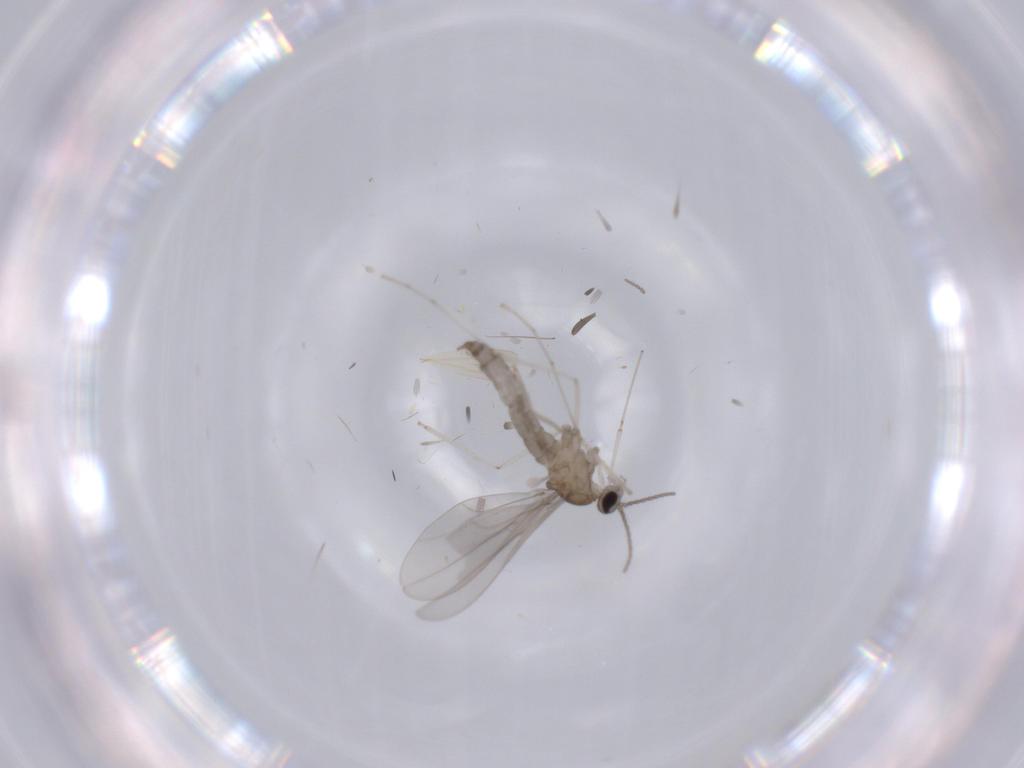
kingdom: Animalia
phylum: Arthropoda
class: Insecta
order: Diptera
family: Sciaridae
